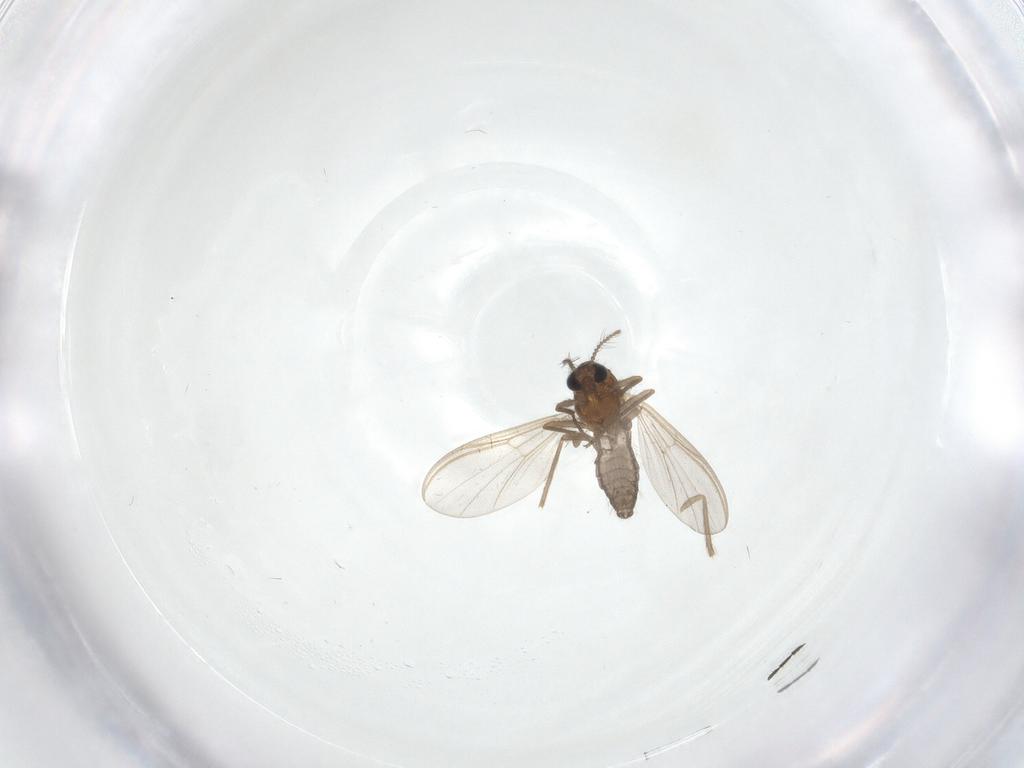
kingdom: Animalia
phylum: Arthropoda
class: Insecta
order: Diptera
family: Chironomidae
